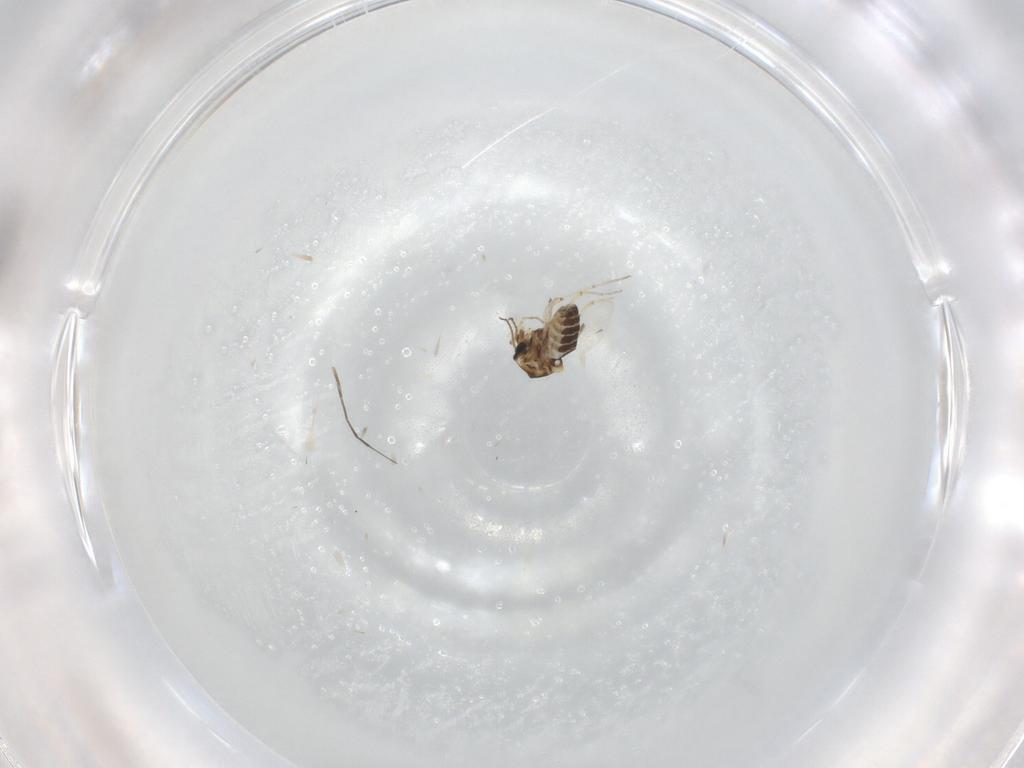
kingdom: Animalia
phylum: Arthropoda
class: Insecta
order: Diptera
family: Ceratopogonidae
